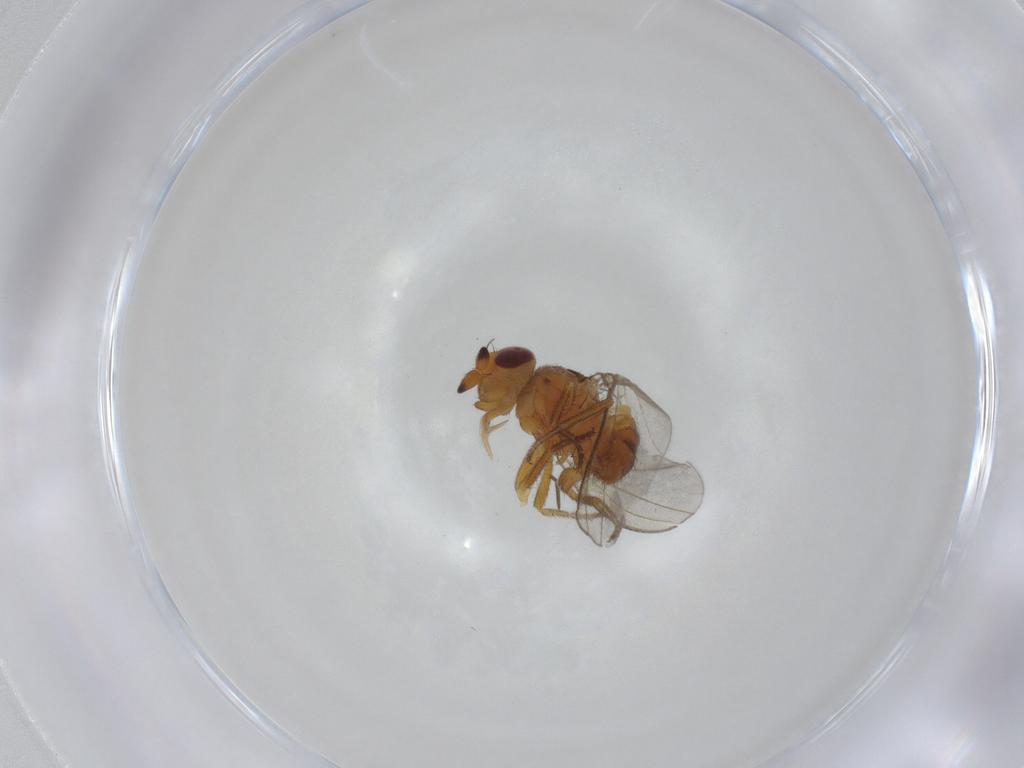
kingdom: Animalia
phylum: Arthropoda
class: Insecta
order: Diptera
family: Milichiidae
